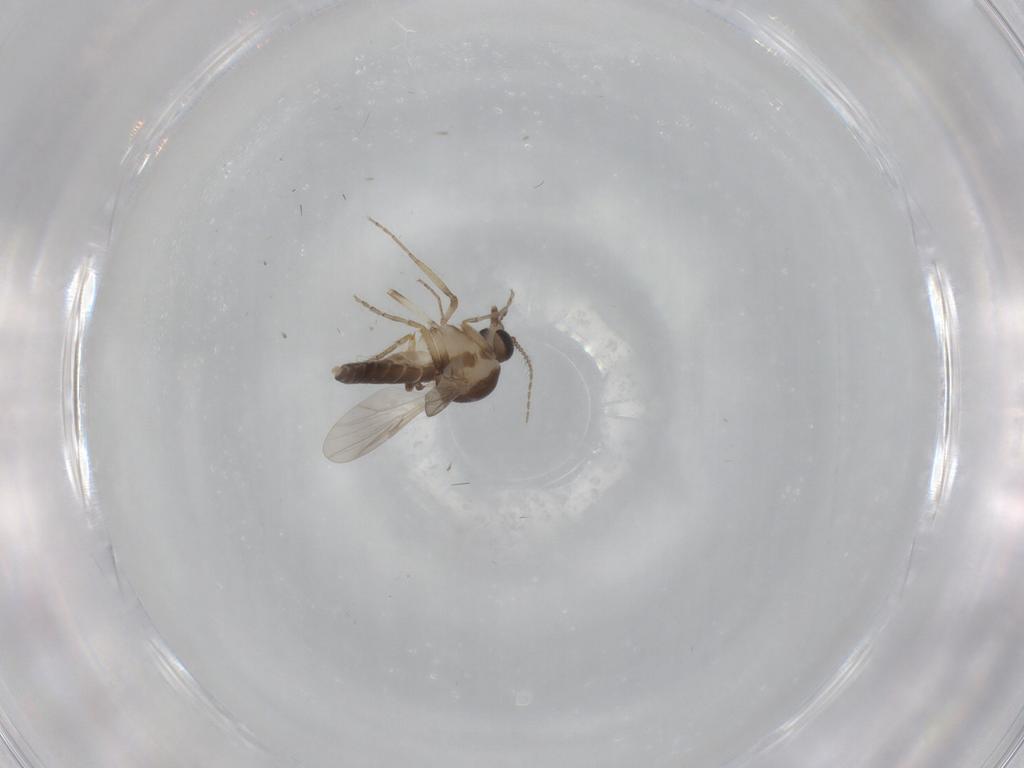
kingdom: Animalia
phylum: Arthropoda
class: Insecta
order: Diptera
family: Ceratopogonidae
